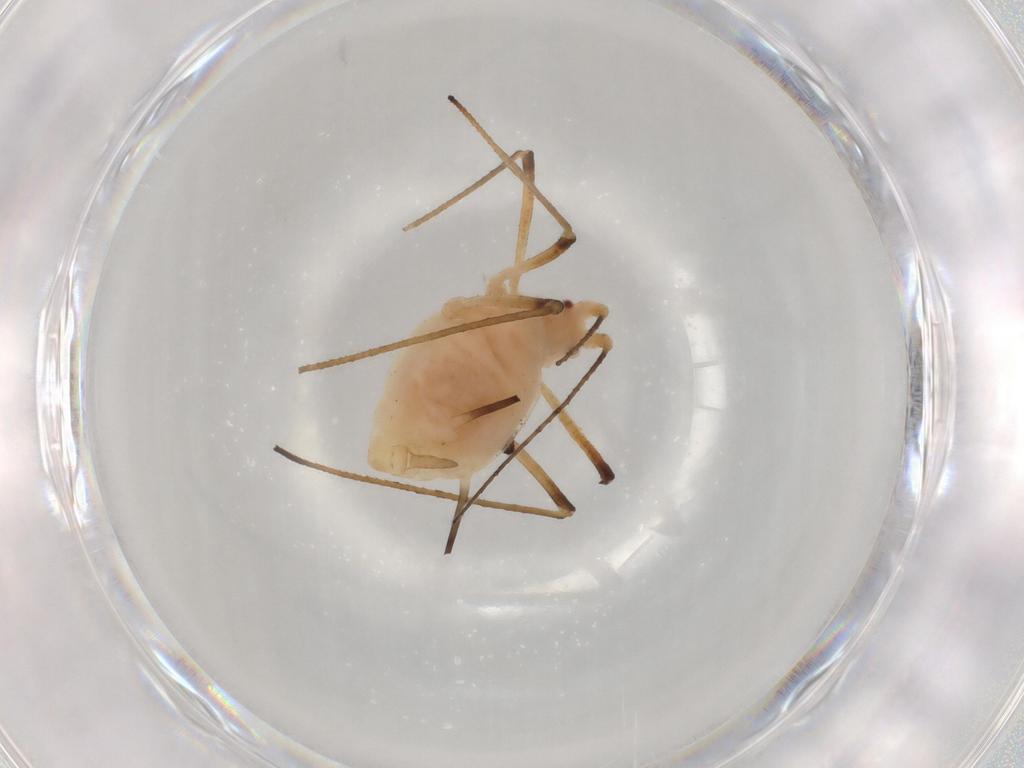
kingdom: Animalia
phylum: Arthropoda
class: Insecta
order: Hemiptera
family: Aphididae
